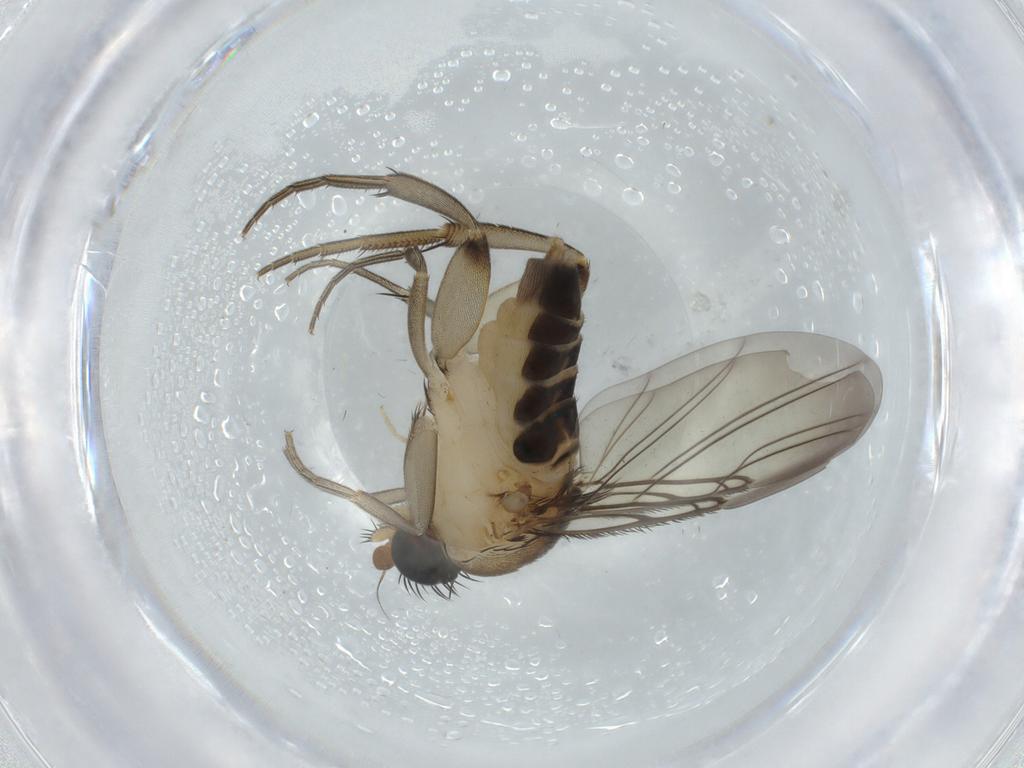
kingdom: Animalia
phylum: Arthropoda
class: Insecta
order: Diptera
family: Phoridae
